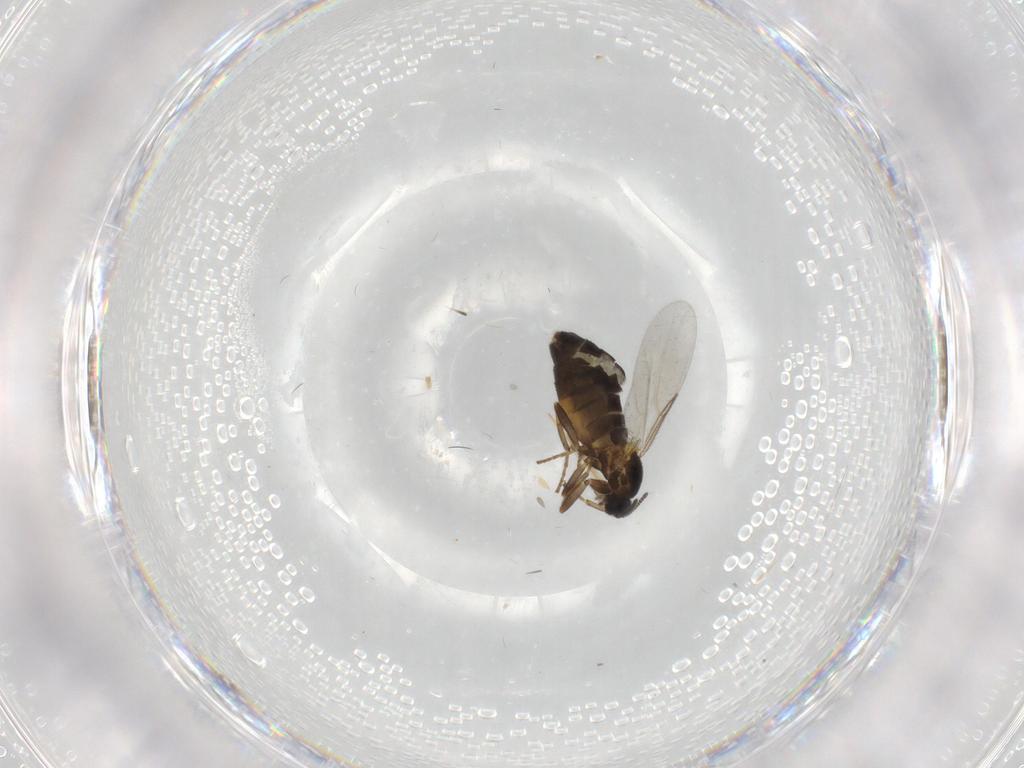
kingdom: Animalia
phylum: Arthropoda
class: Insecta
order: Diptera
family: Scatopsidae
